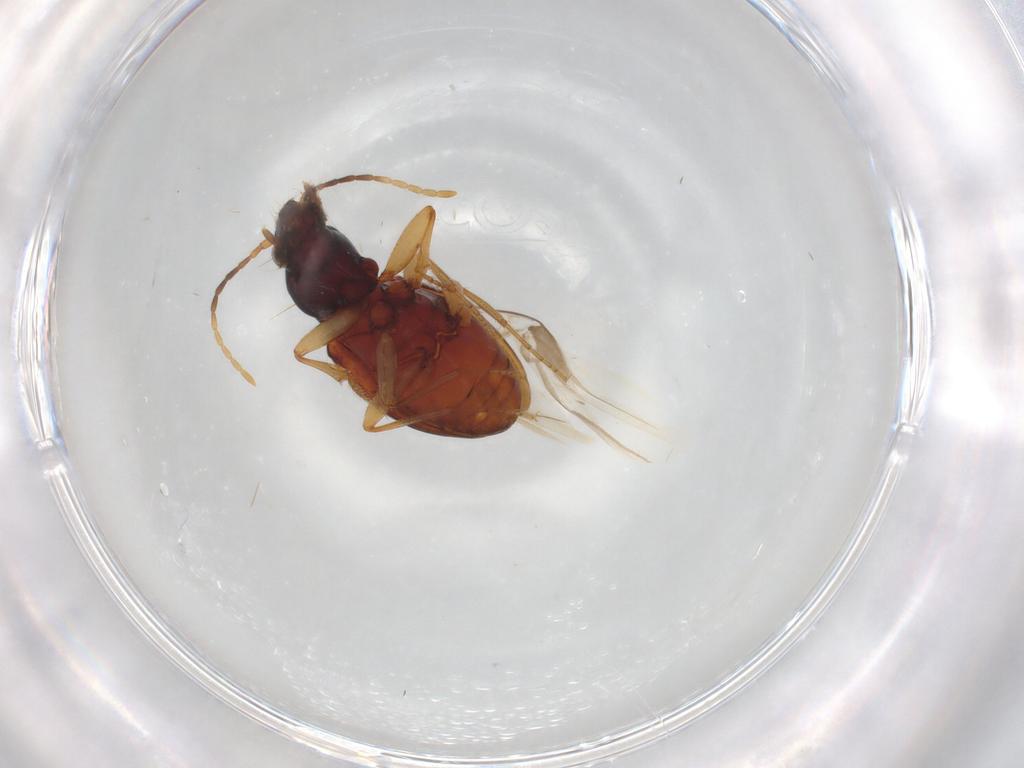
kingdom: Animalia
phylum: Arthropoda
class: Insecta
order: Coleoptera
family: Carabidae
